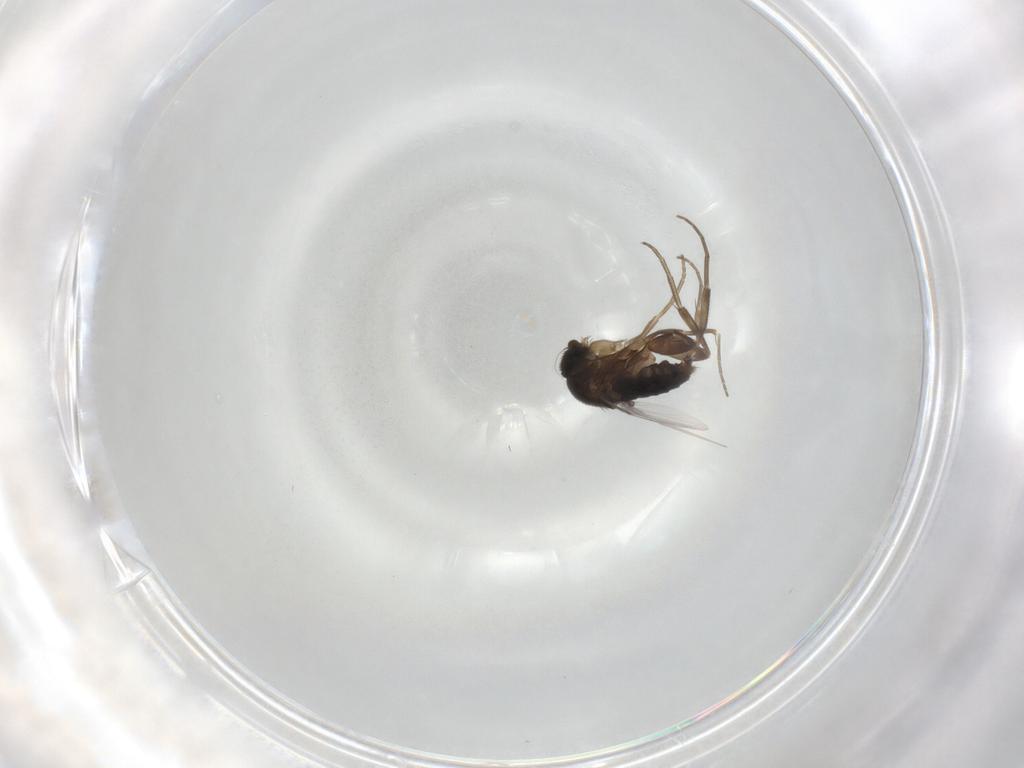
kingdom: Animalia
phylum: Arthropoda
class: Insecta
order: Diptera
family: Phoridae
